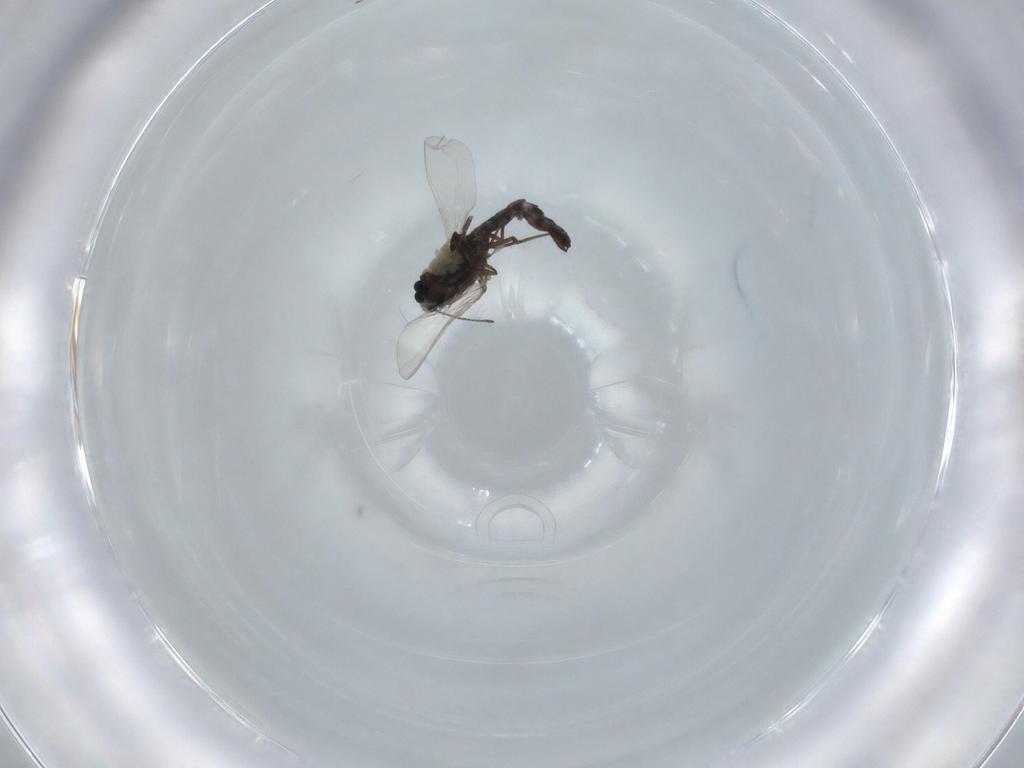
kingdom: Animalia
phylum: Arthropoda
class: Insecta
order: Diptera
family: Chironomidae
